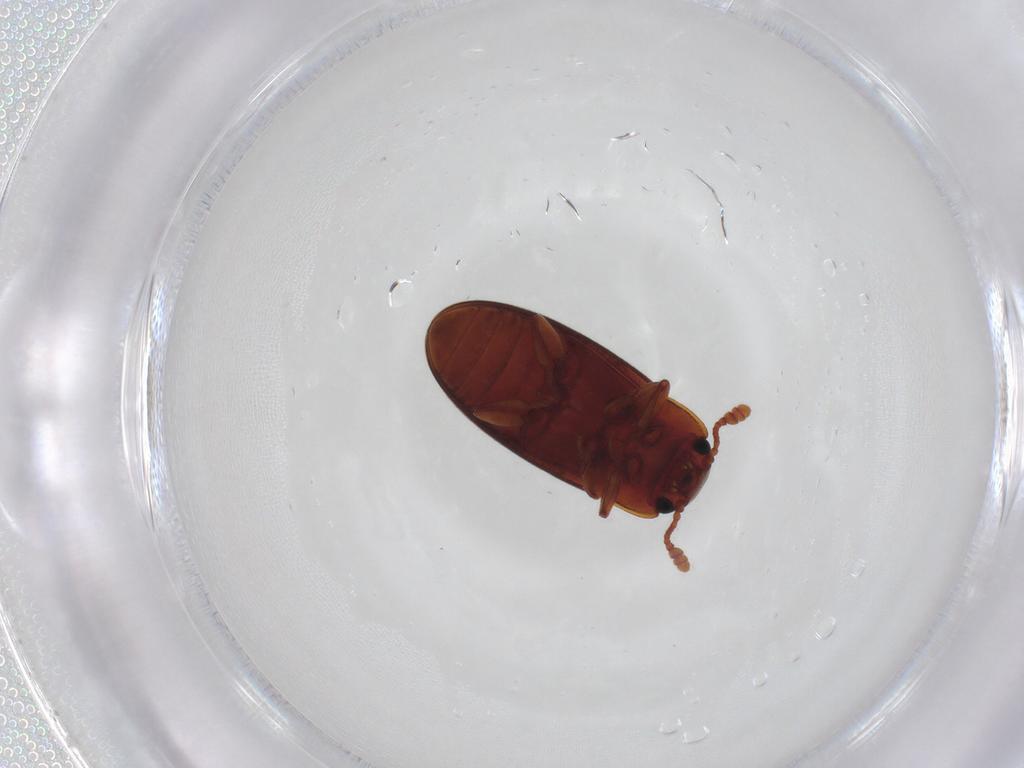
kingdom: Animalia
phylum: Arthropoda
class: Insecta
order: Coleoptera
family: Erotylidae
